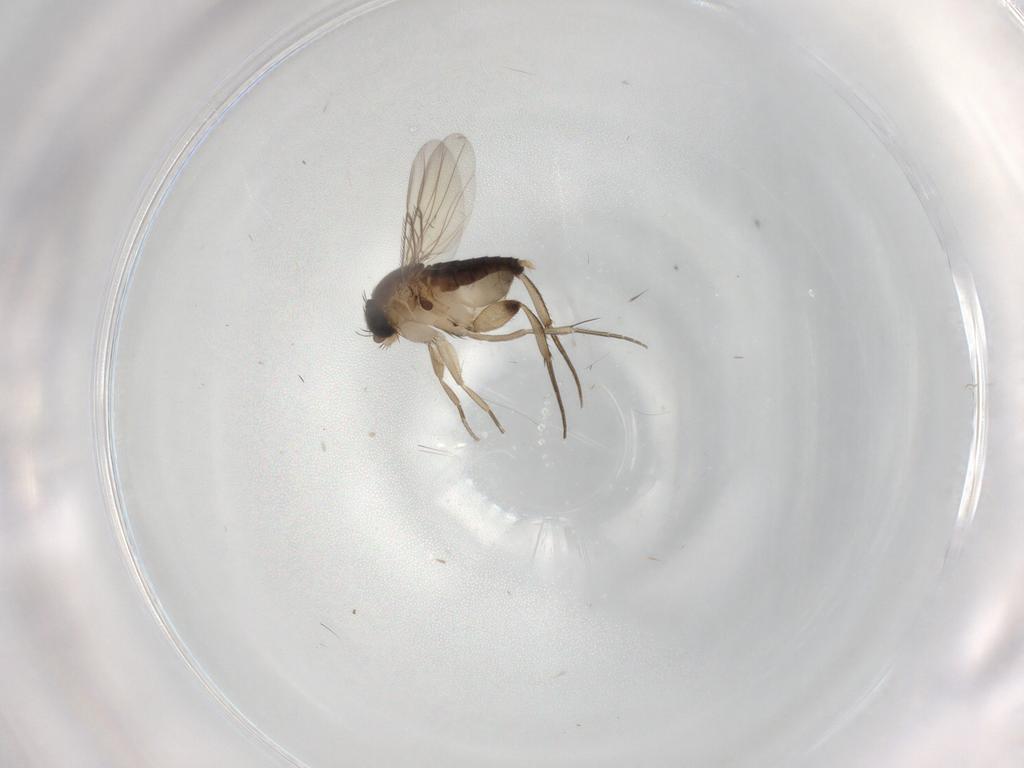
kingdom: Animalia
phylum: Arthropoda
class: Insecta
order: Diptera
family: Phoridae
